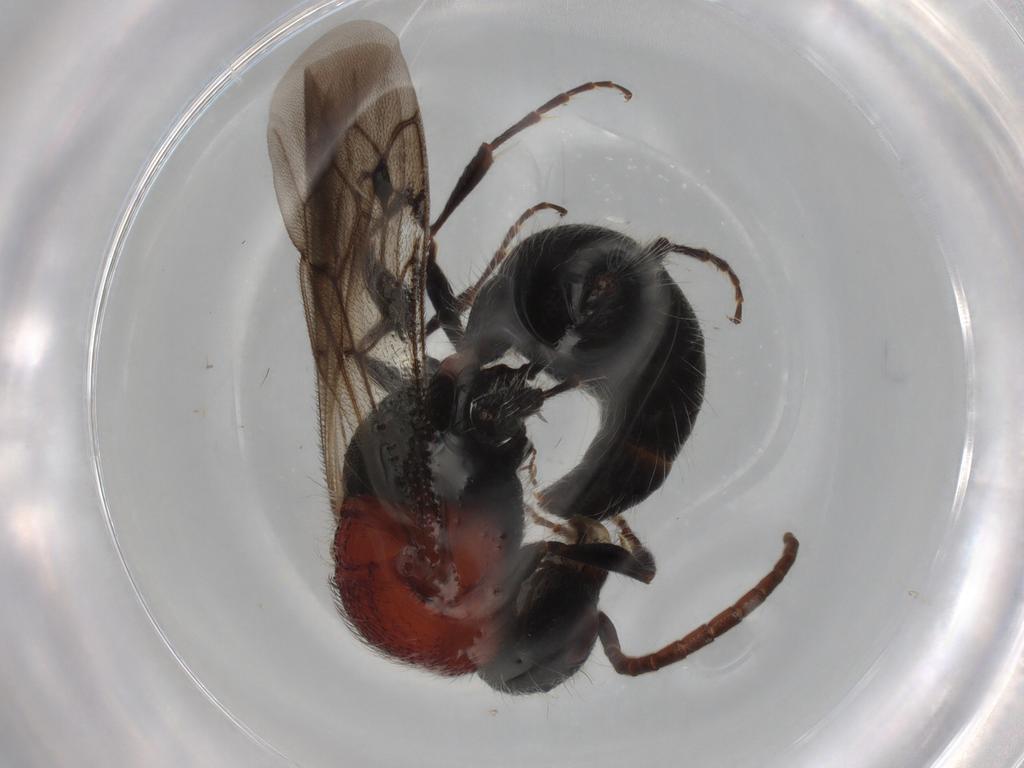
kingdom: Animalia
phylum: Arthropoda
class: Insecta
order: Hymenoptera
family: Mutillidae
